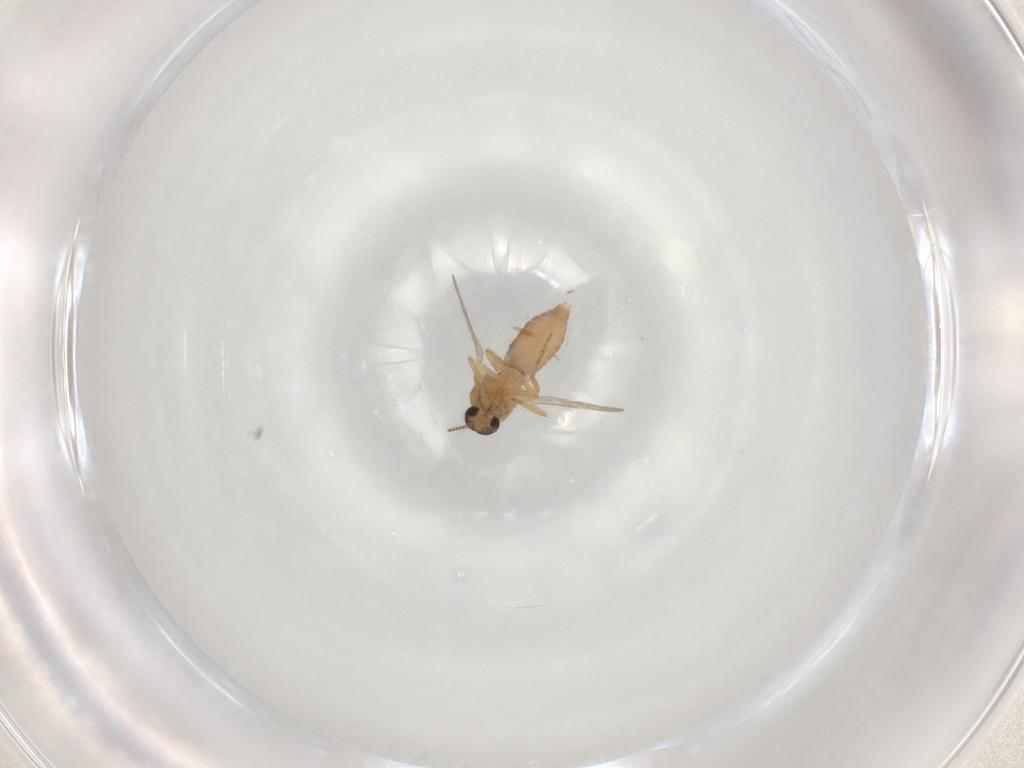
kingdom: Animalia
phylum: Arthropoda
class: Insecta
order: Diptera
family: Ceratopogonidae
